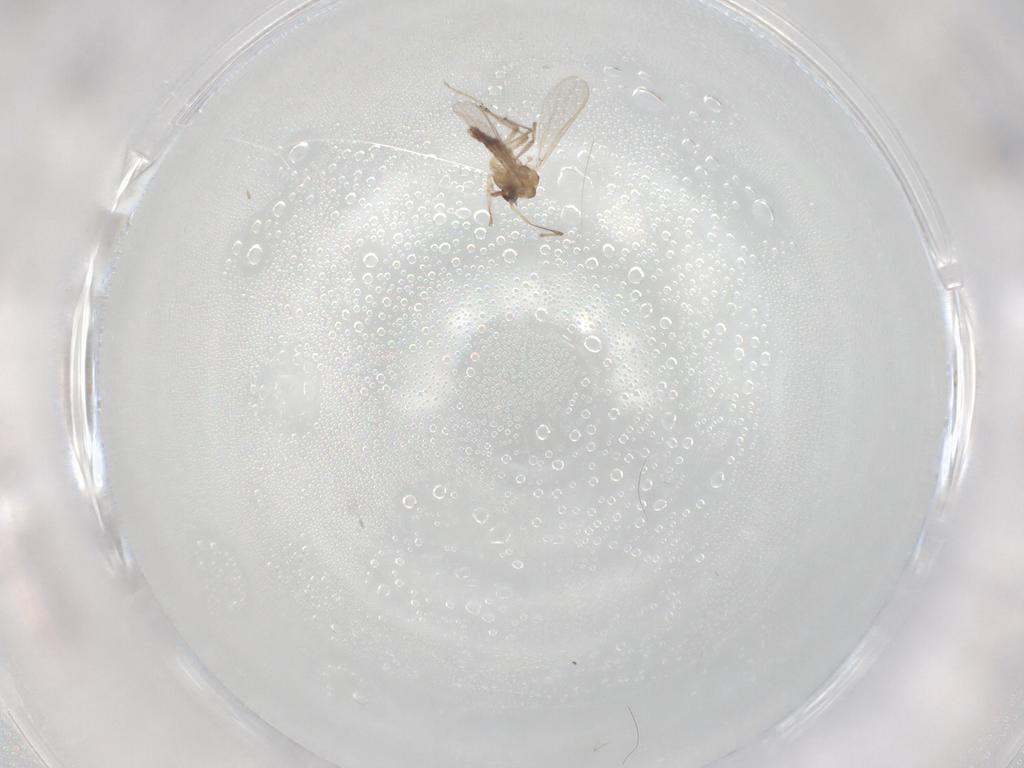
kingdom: Animalia
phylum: Arthropoda
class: Insecta
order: Diptera
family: Chironomidae
